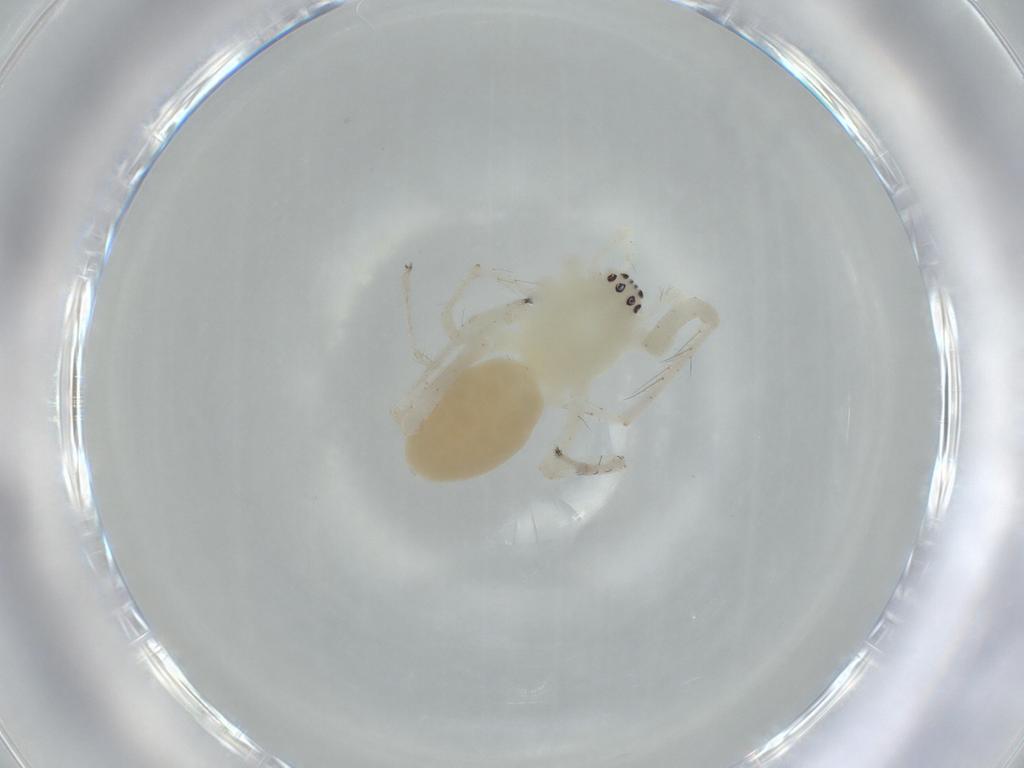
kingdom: Animalia
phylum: Arthropoda
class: Arachnida
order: Araneae
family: Anyphaenidae
